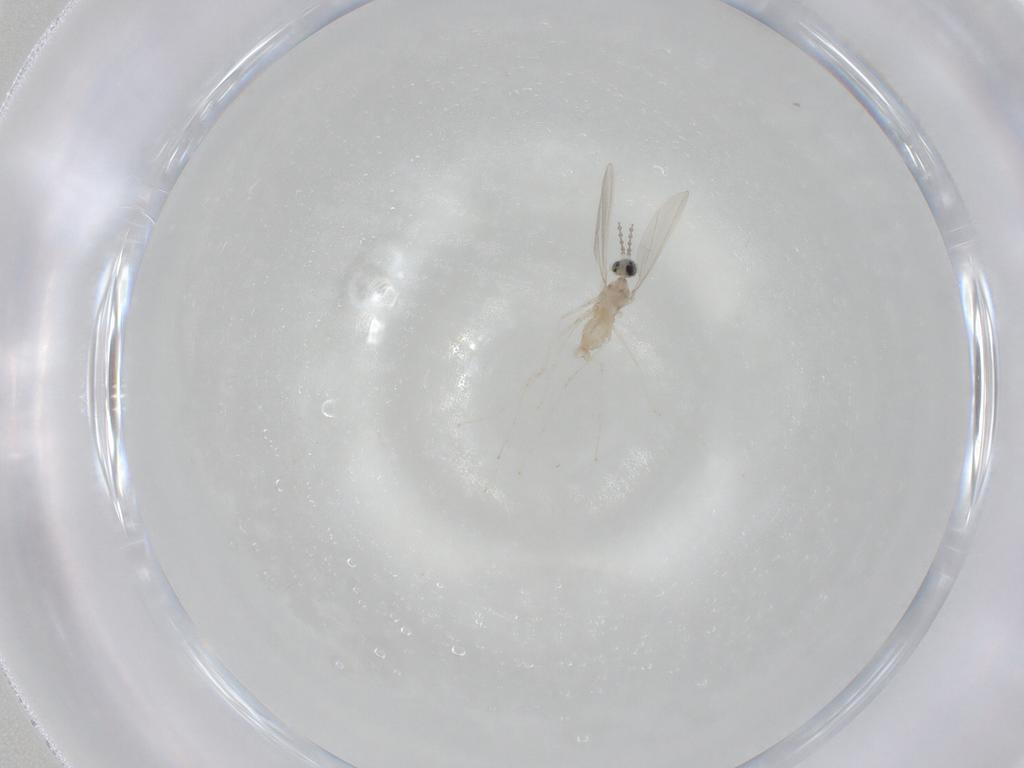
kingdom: Animalia
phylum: Arthropoda
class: Insecta
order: Diptera
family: Cecidomyiidae
